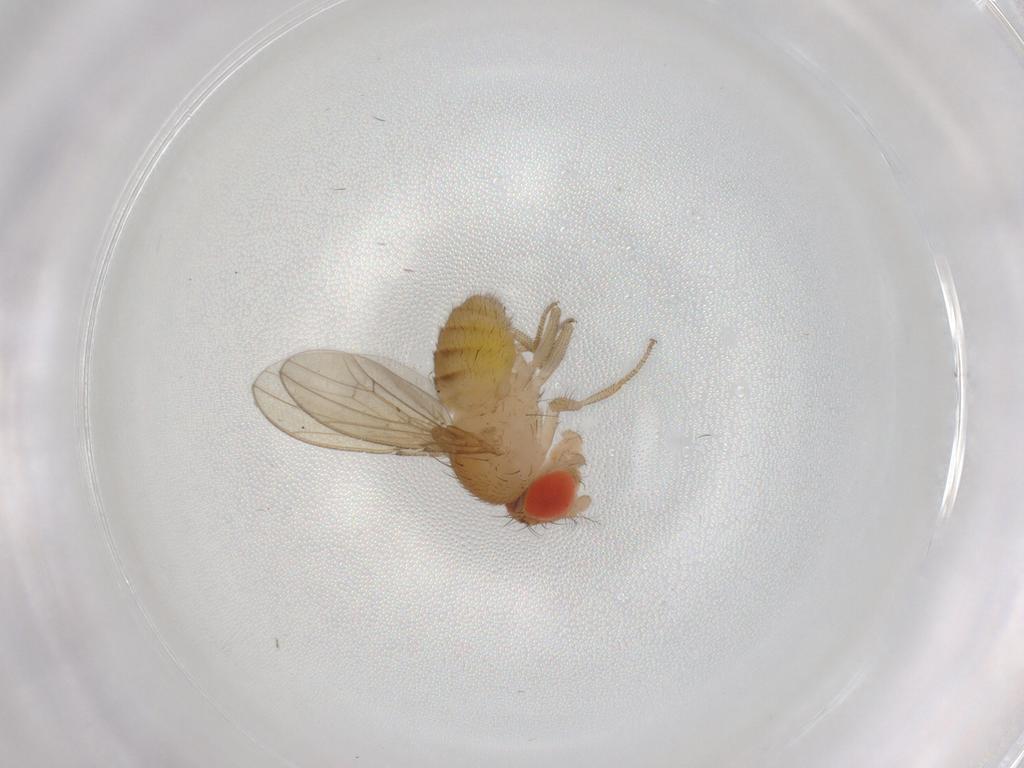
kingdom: Animalia
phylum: Arthropoda
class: Insecta
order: Diptera
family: Drosophilidae
